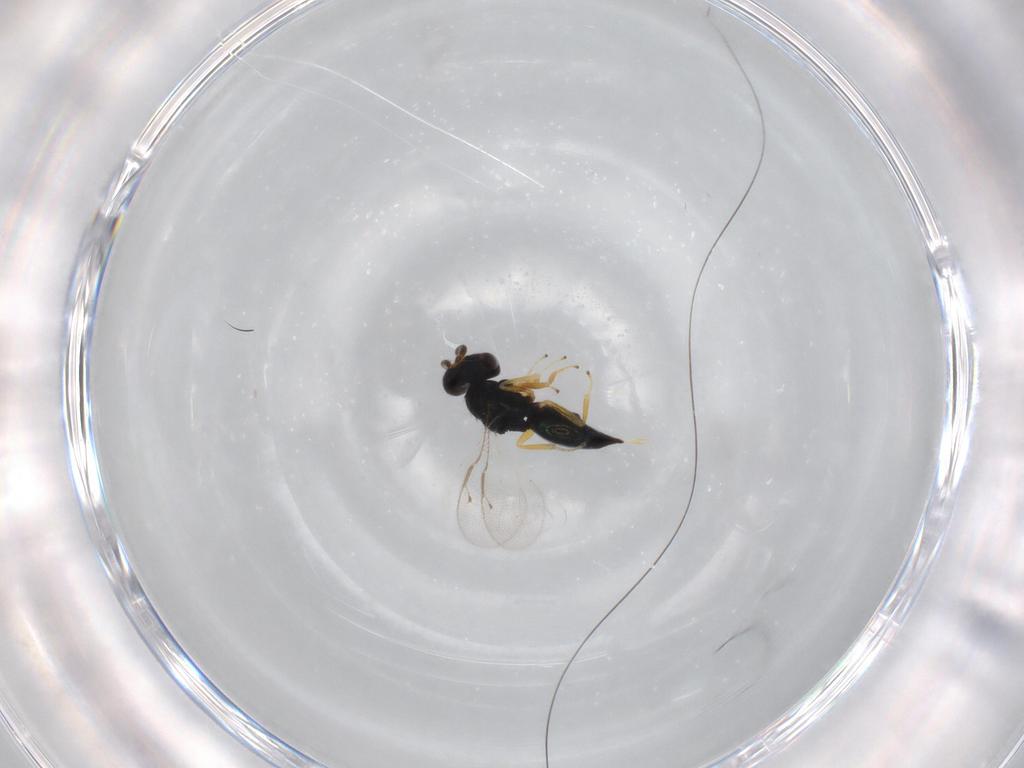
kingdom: Animalia
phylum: Arthropoda
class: Insecta
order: Hymenoptera
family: Pteromalidae
